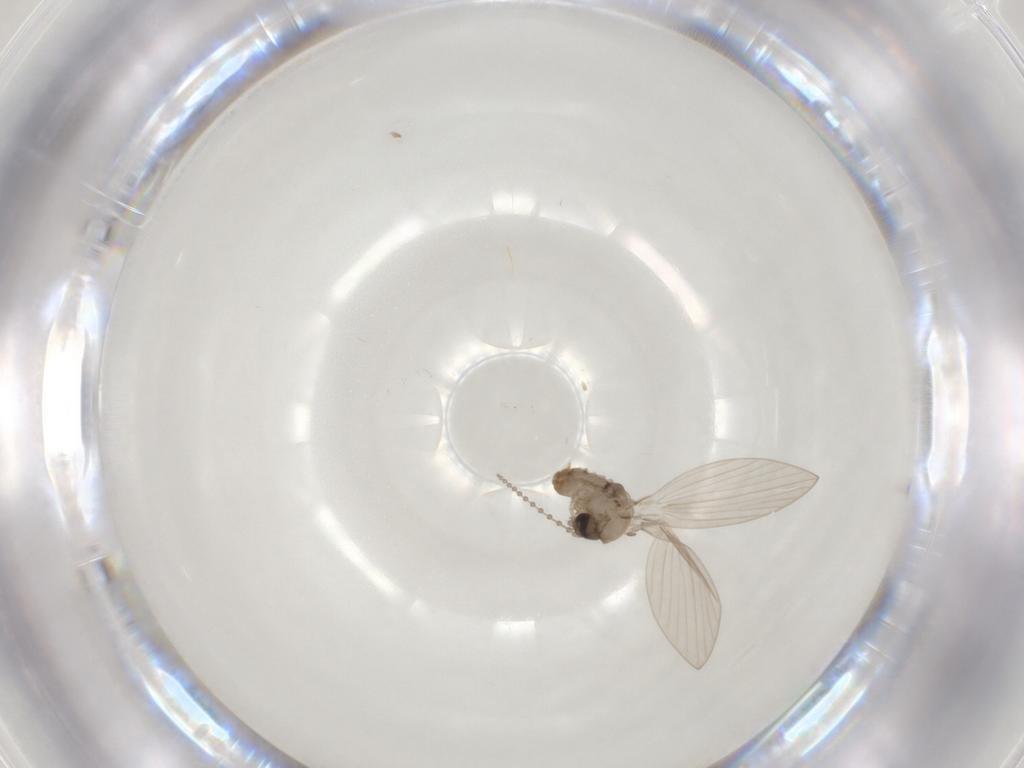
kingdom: Animalia
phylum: Arthropoda
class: Insecta
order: Diptera
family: Psychodidae
